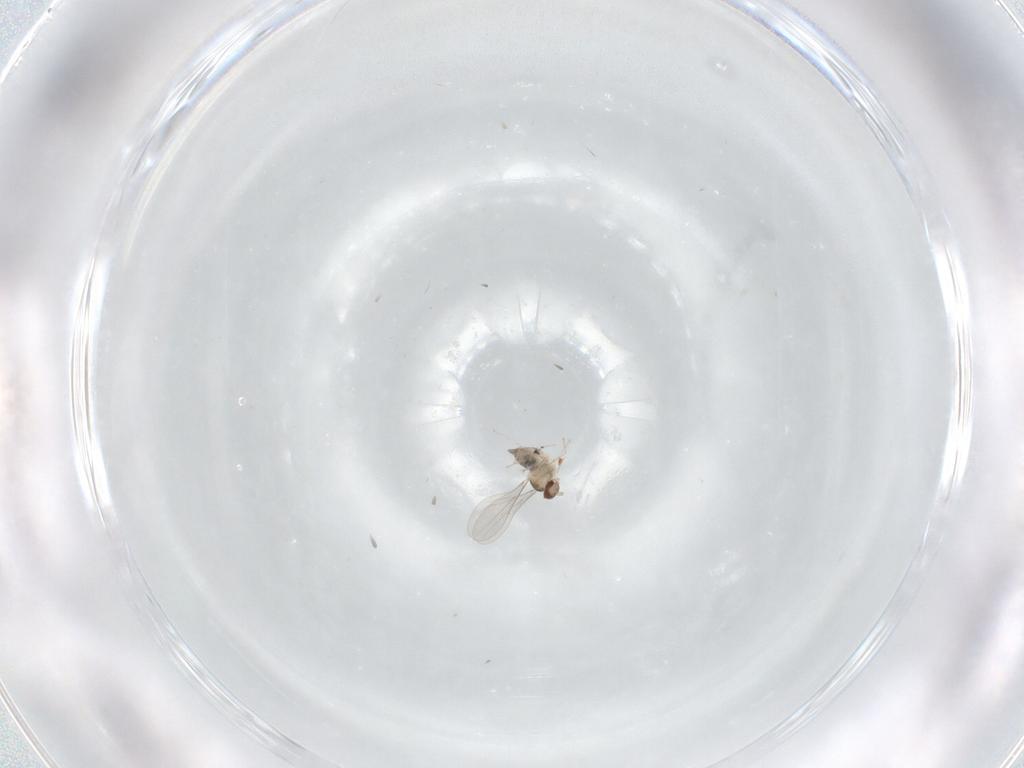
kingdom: Animalia
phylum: Arthropoda
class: Insecta
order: Diptera
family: Cecidomyiidae
